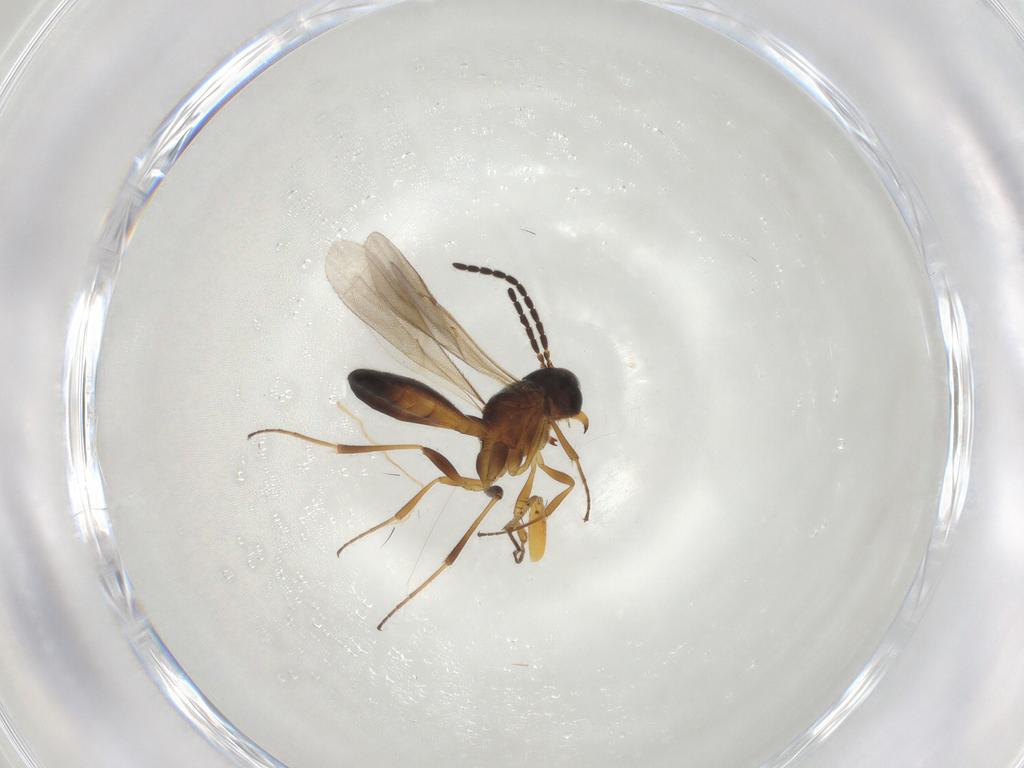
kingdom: Animalia
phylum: Arthropoda
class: Insecta
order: Hymenoptera
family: Scelionidae
